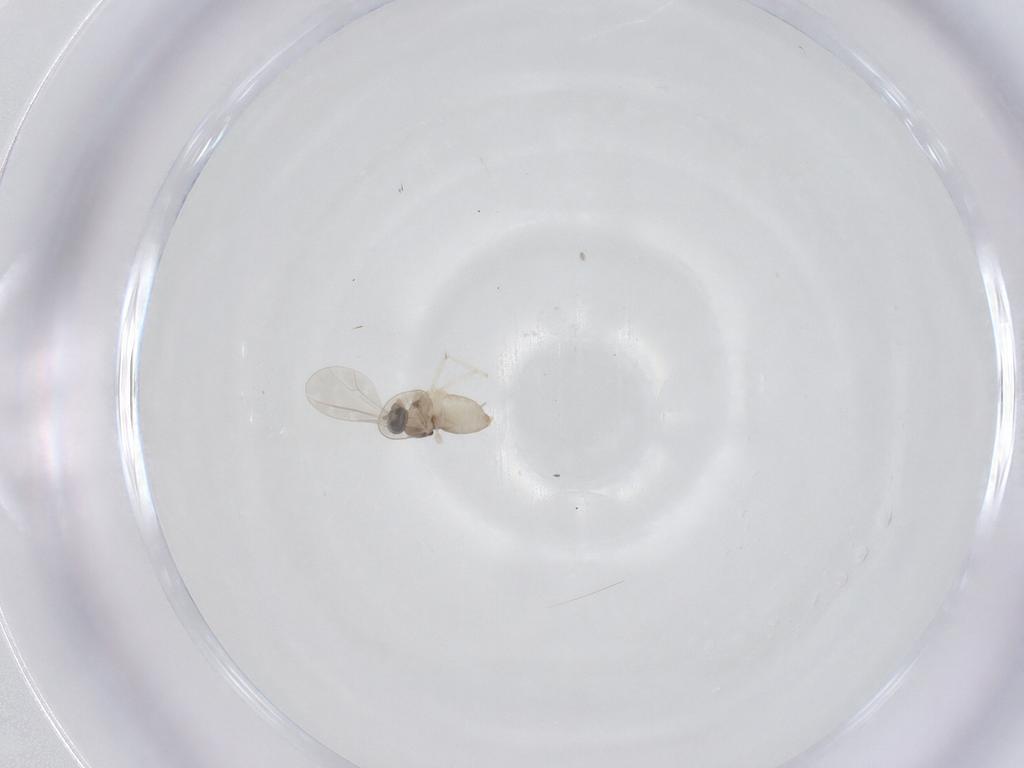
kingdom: Animalia
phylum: Arthropoda
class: Insecta
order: Diptera
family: Cecidomyiidae
